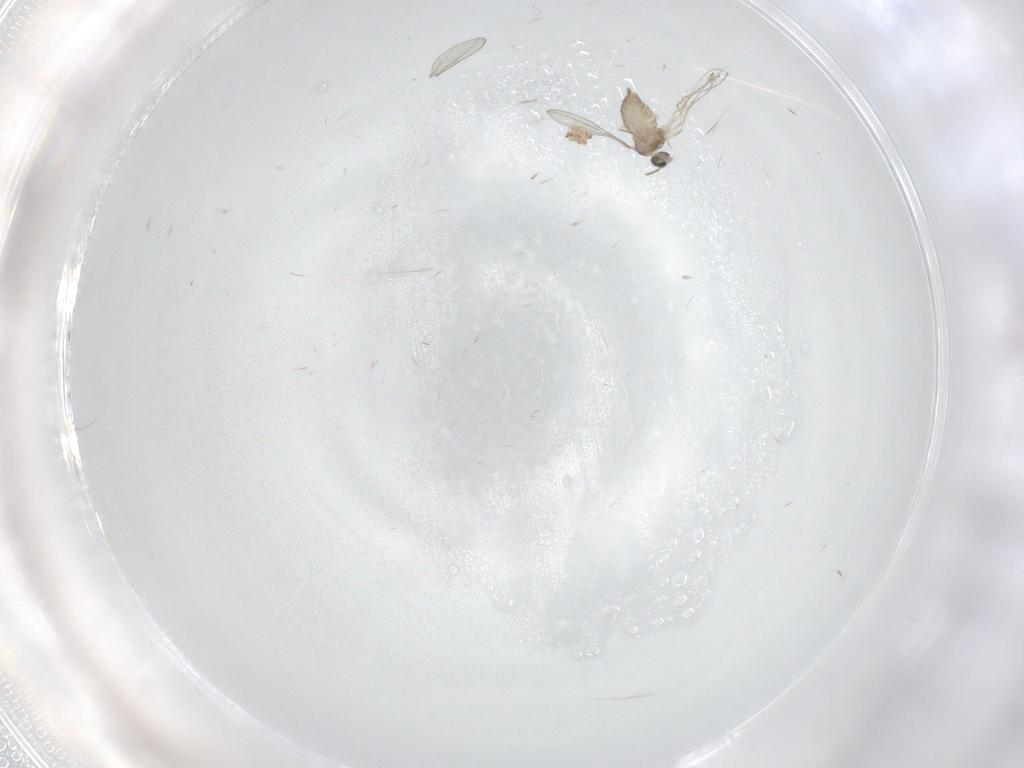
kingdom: Animalia
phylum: Arthropoda
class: Insecta
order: Diptera
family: Cecidomyiidae
